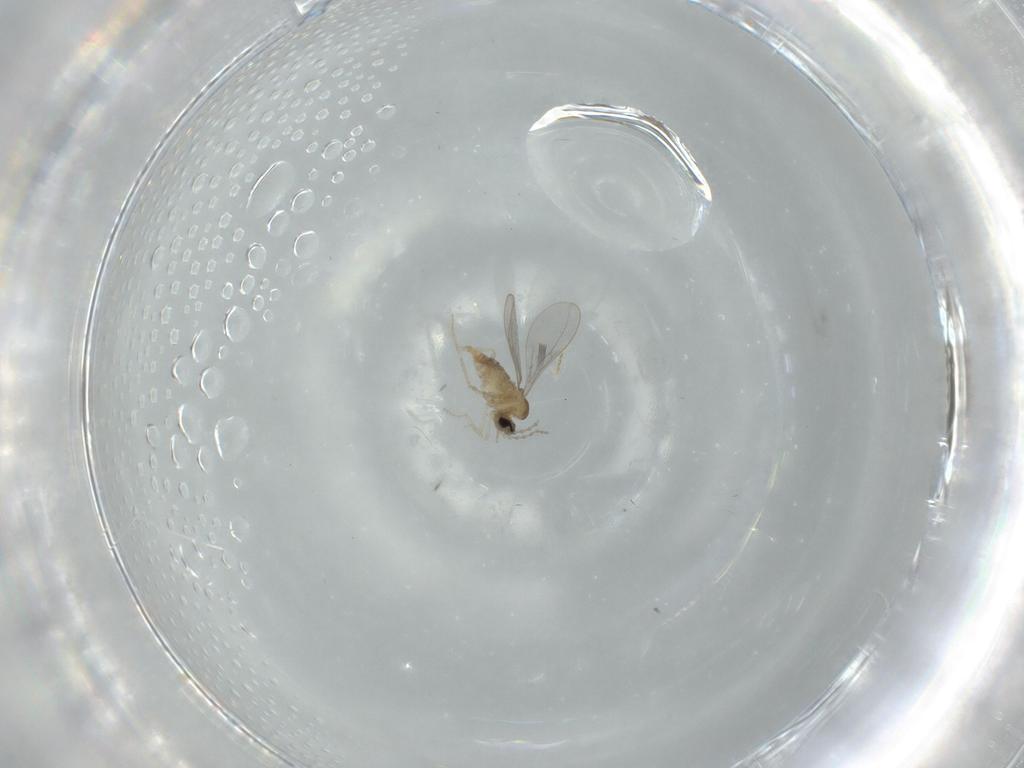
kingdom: Animalia
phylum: Arthropoda
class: Insecta
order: Diptera
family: Cecidomyiidae
